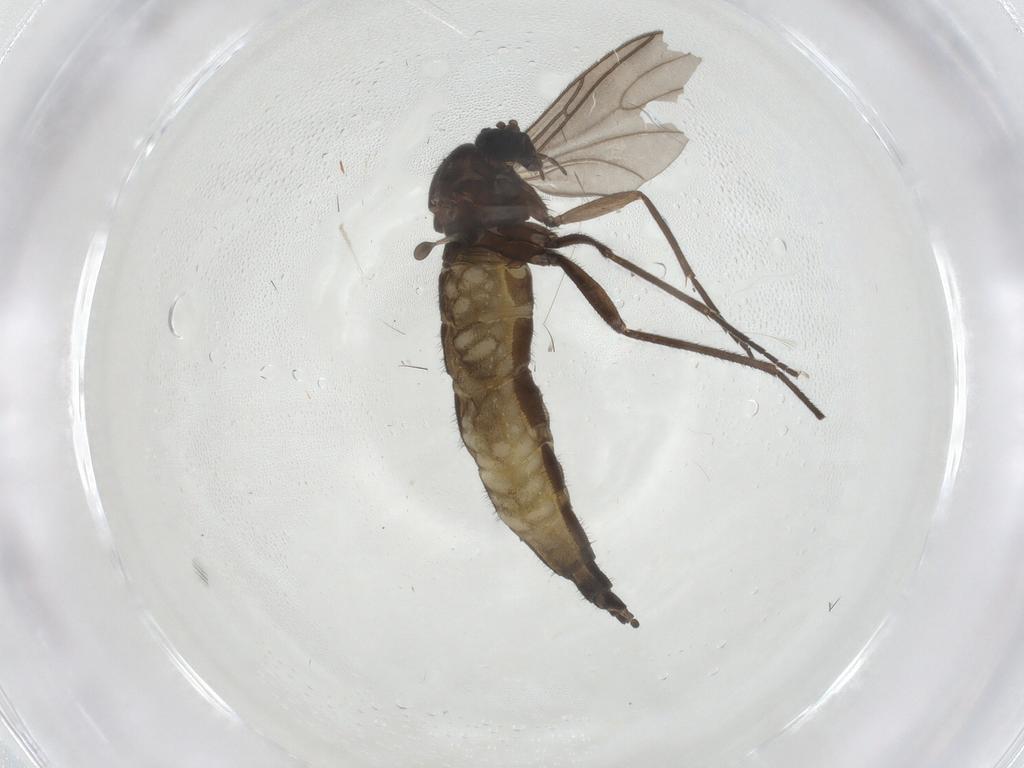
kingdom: Animalia
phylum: Arthropoda
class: Insecta
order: Diptera
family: Sciaridae
